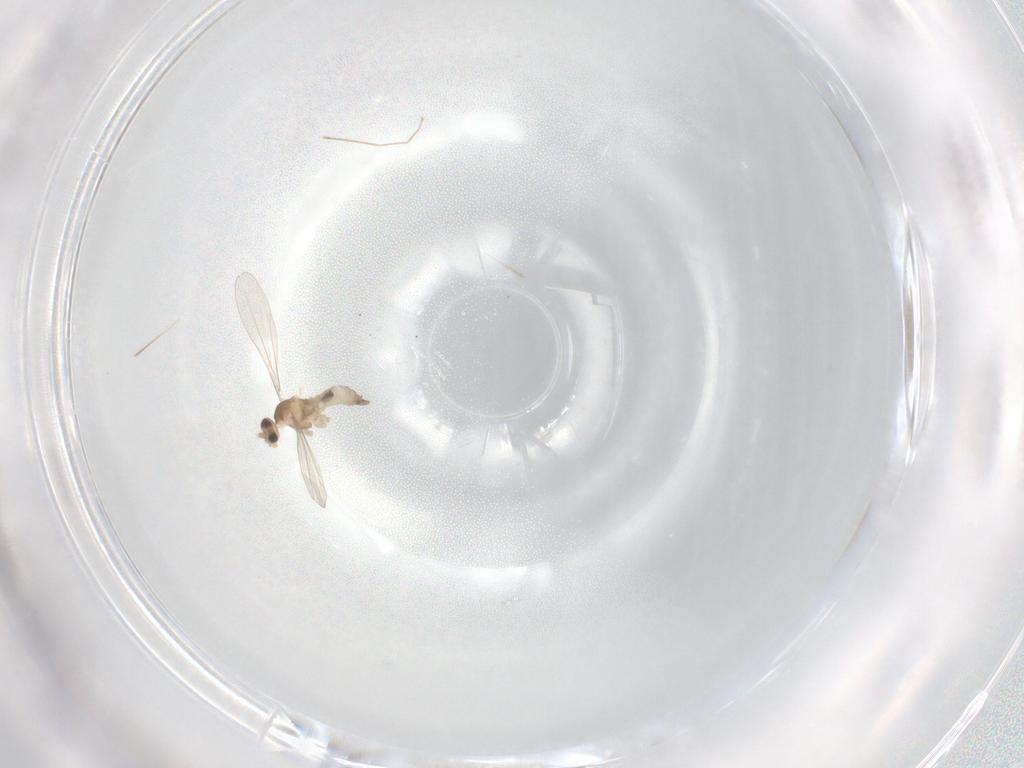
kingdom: Animalia
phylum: Arthropoda
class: Insecta
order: Diptera
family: Cecidomyiidae
